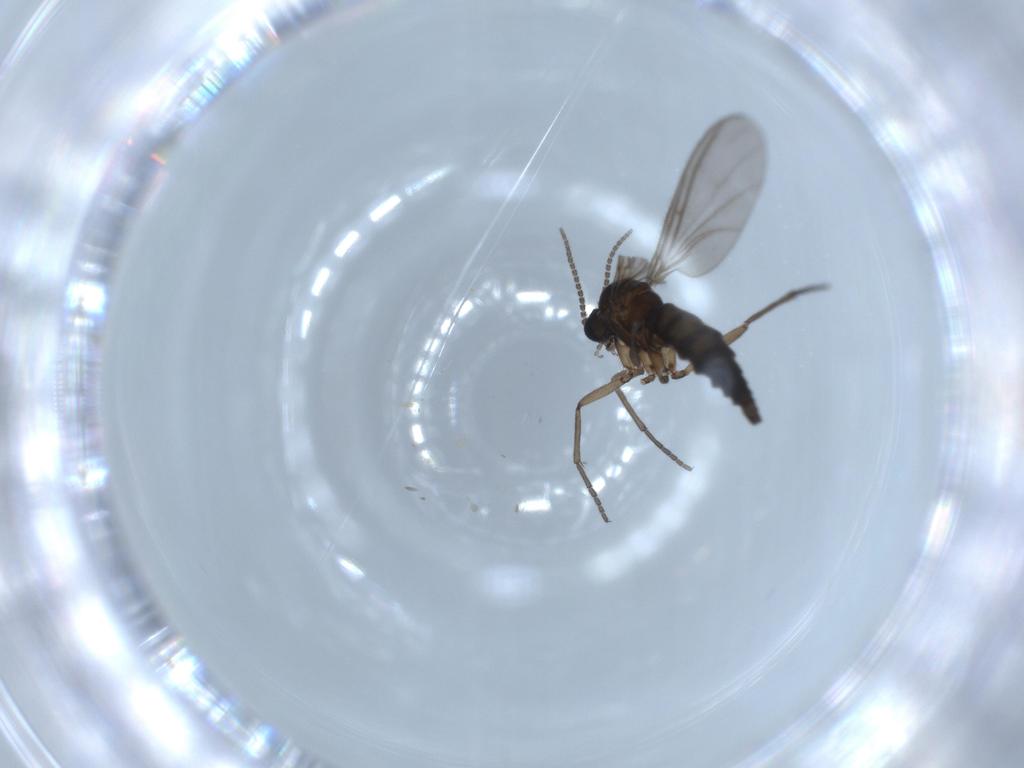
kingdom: Animalia
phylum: Arthropoda
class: Insecta
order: Diptera
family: Sciaridae
